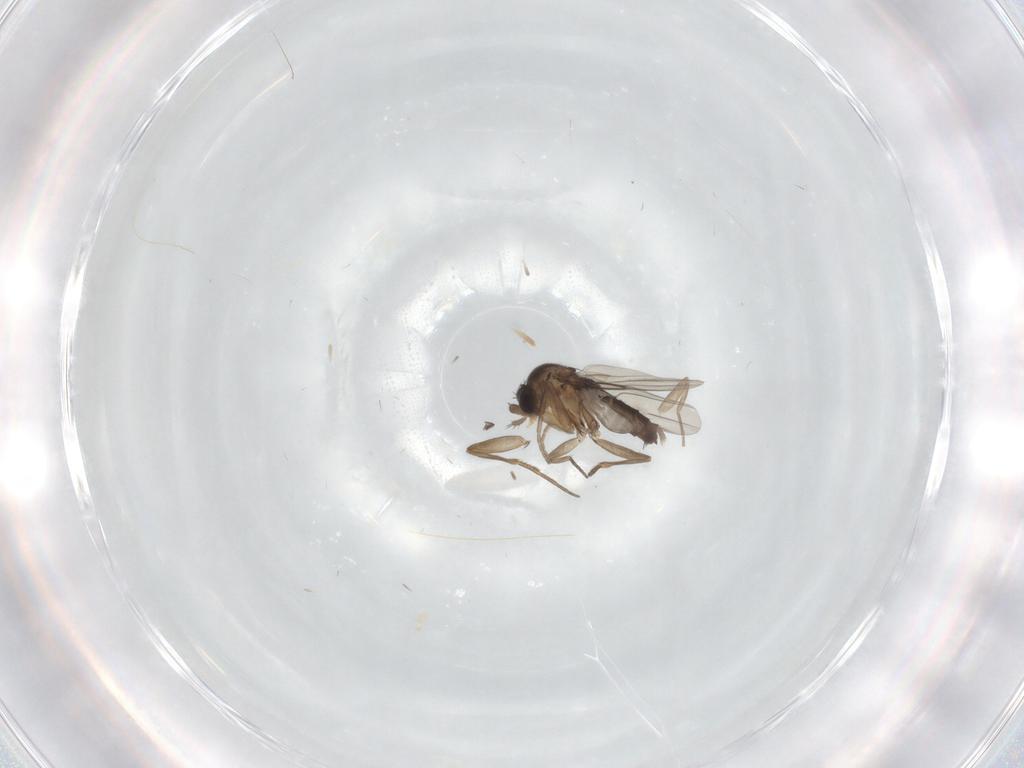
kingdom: Animalia
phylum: Arthropoda
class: Insecta
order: Diptera
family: Phoridae
